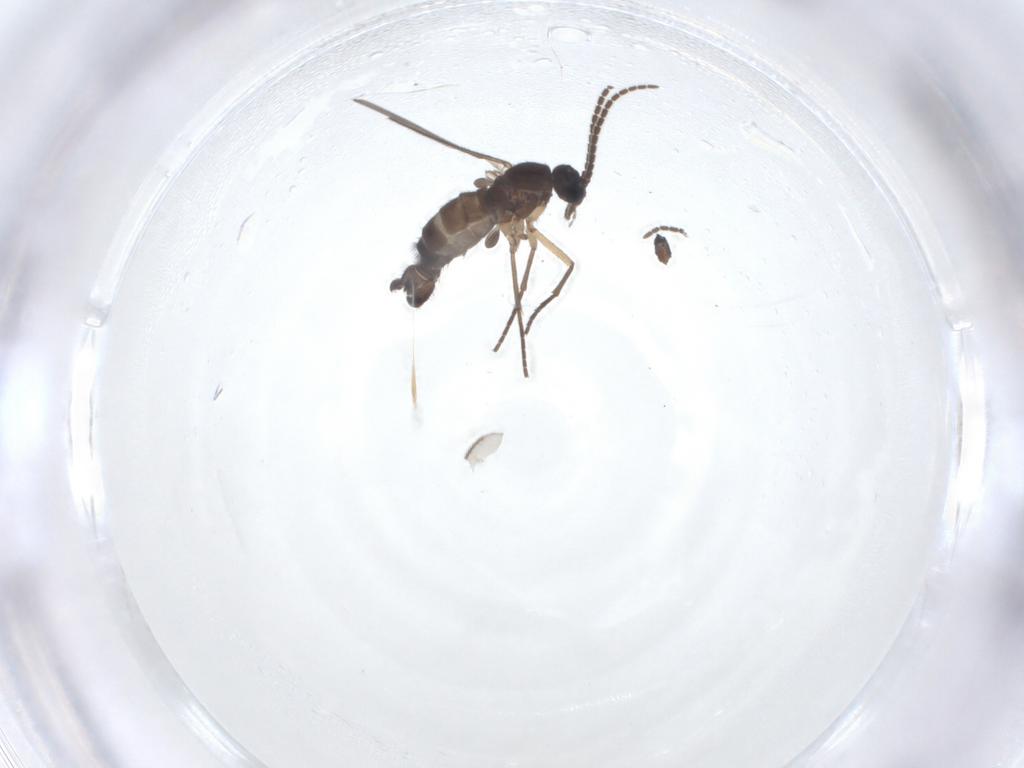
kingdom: Animalia
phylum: Arthropoda
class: Insecta
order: Diptera
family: Sciaridae
